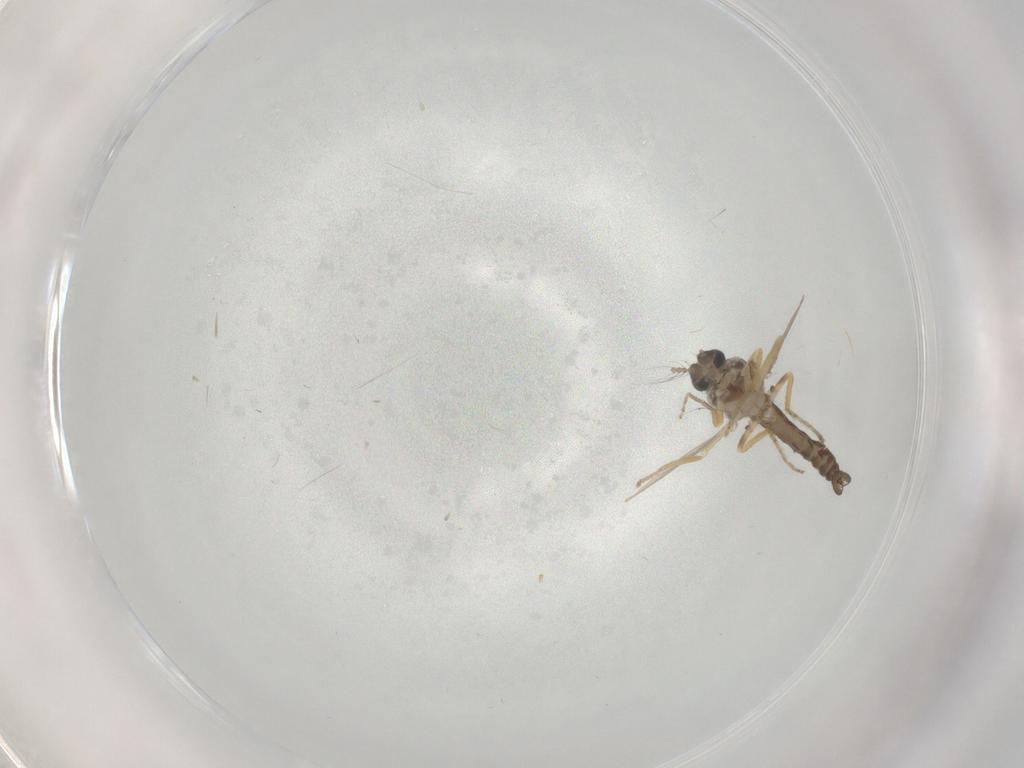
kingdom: Animalia
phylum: Arthropoda
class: Insecta
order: Diptera
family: Ceratopogonidae
